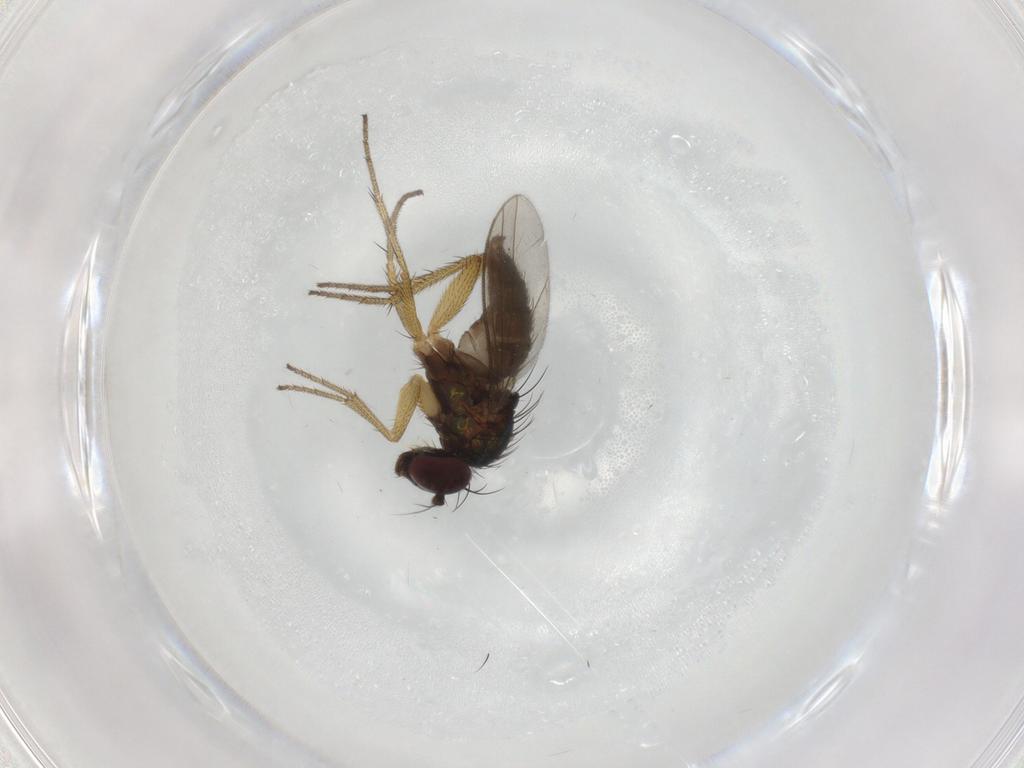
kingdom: Animalia
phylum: Arthropoda
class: Insecta
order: Diptera
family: Dolichopodidae
